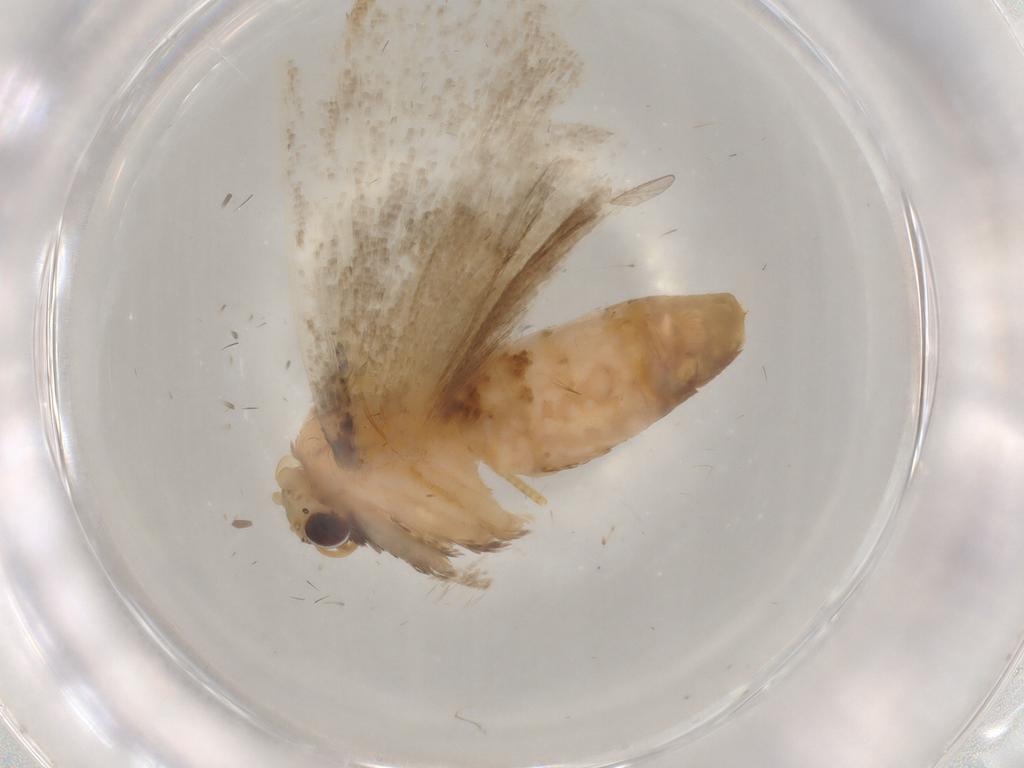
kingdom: Animalia
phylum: Arthropoda
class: Insecta
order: Lepidoptera
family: Erebidae
